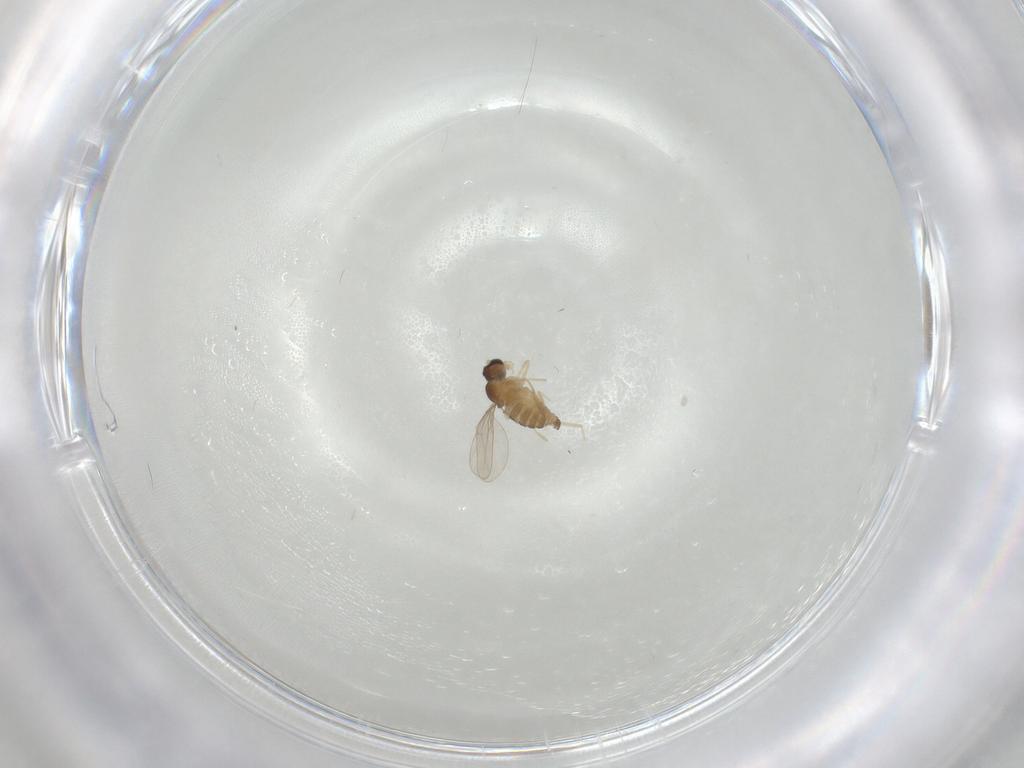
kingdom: Animalia
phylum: Arthropoda
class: Insecta
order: Diptera
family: Cecidomyiidae
